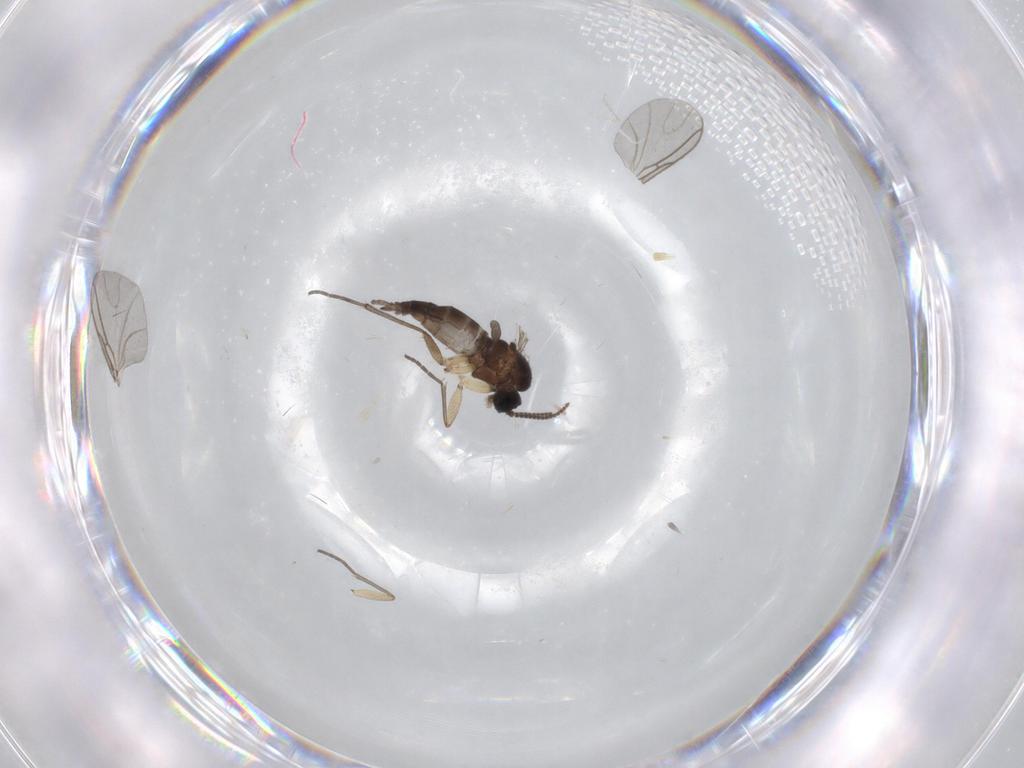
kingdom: Animalia
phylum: Arthropoda
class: Insecta
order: Diptera
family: Sciaridae
